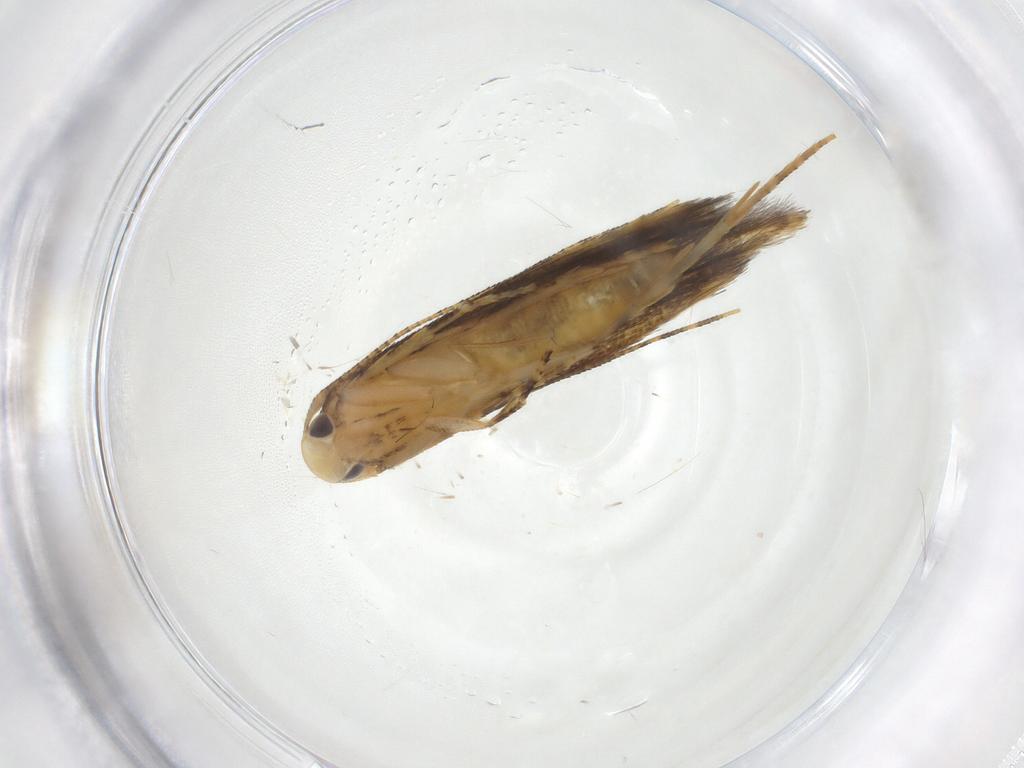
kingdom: Animalia
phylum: Arthropoda
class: Insecta
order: Lepidoptera
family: Erebidae
